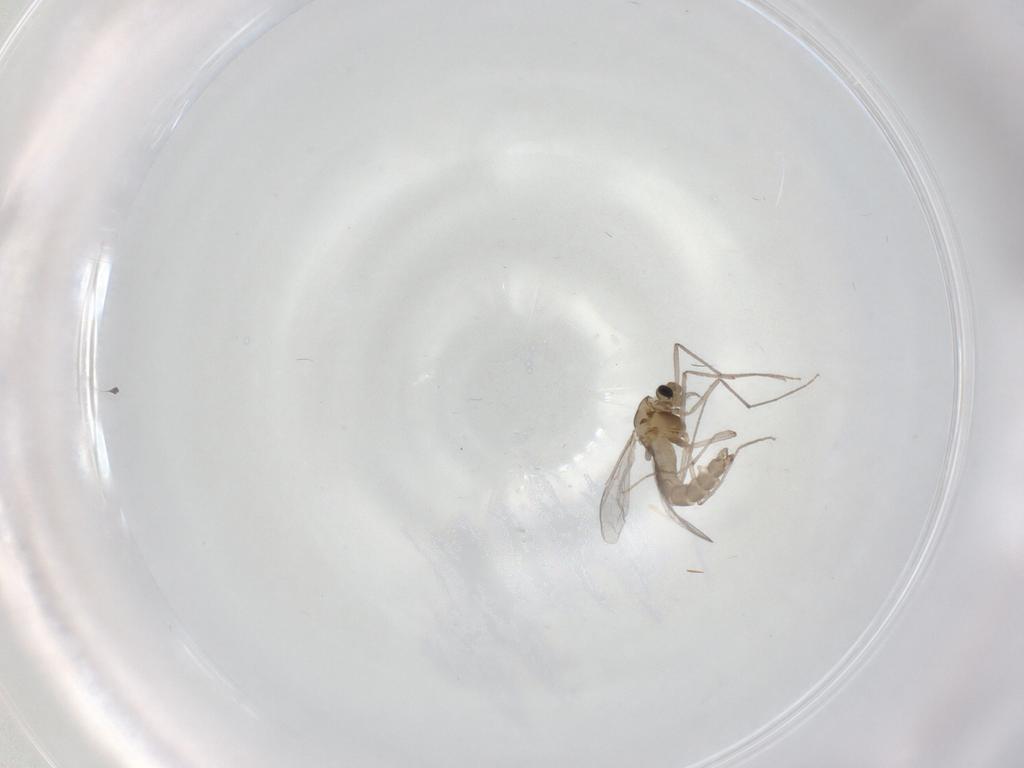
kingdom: Animalia
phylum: Arthropoda
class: Insecta
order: Diptera
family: Chironomidae
